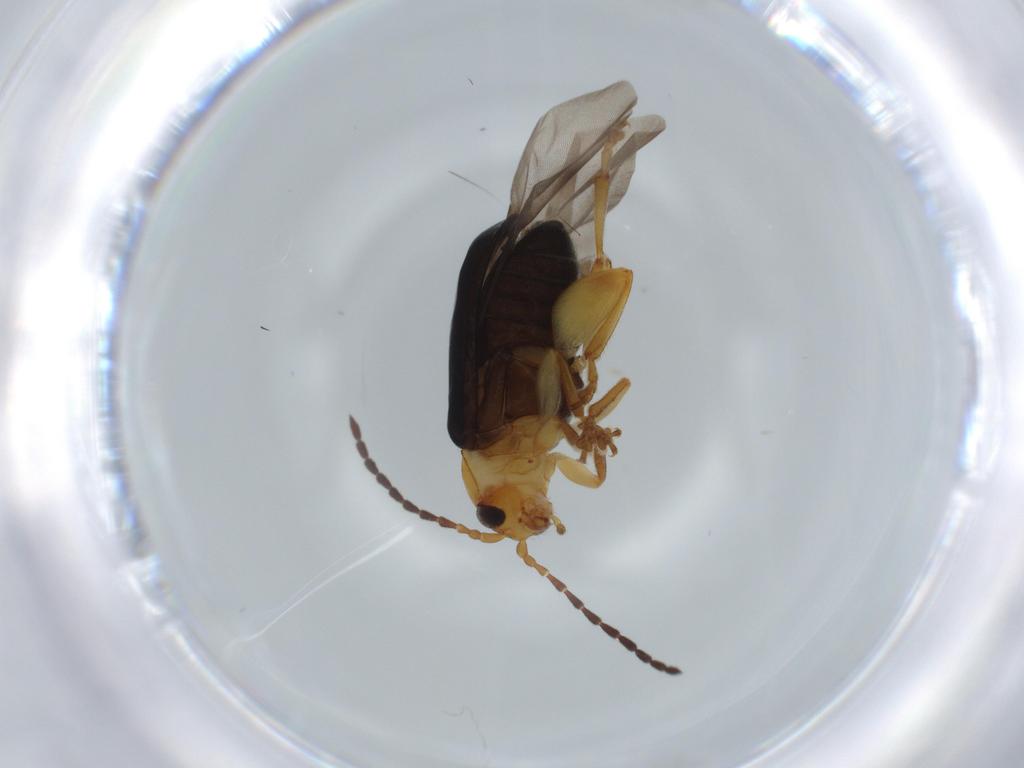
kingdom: Animalia
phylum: Arthropoda
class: Insecta
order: Coleoptera
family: Chrysomelidae
